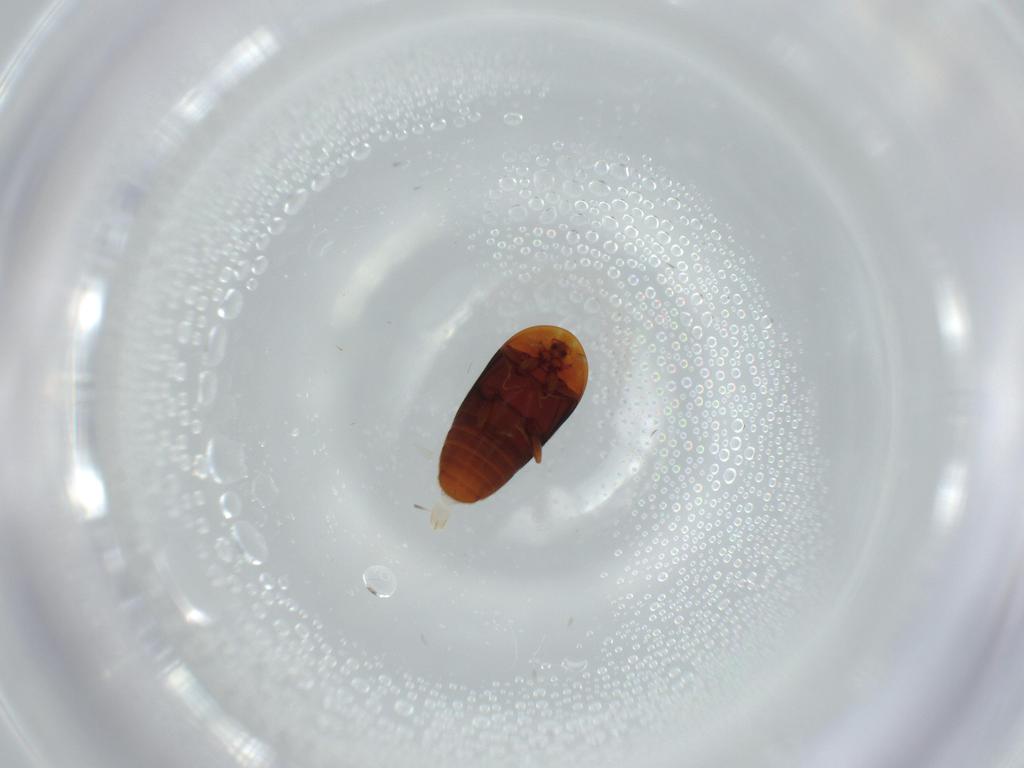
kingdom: Animalia
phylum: Arthropoda
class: Insecta
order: Coleoptera
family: Corylophidae
